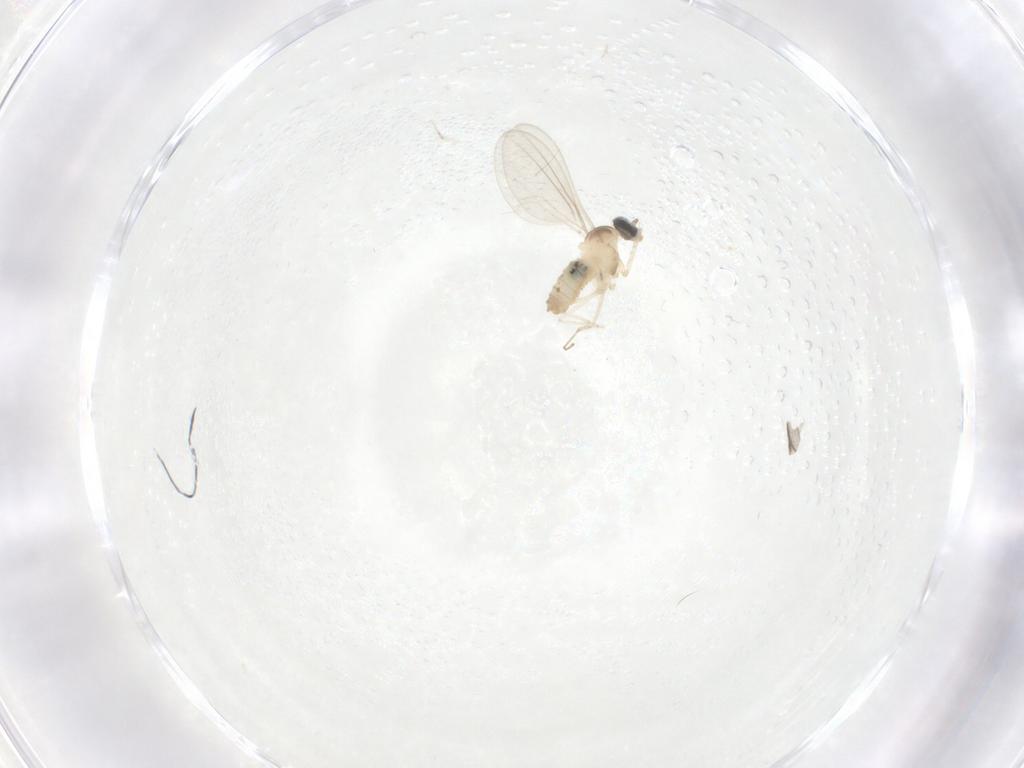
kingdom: Animalia
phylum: Arthropoda
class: Insecta
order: Diptera
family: Cecidomyiidae
